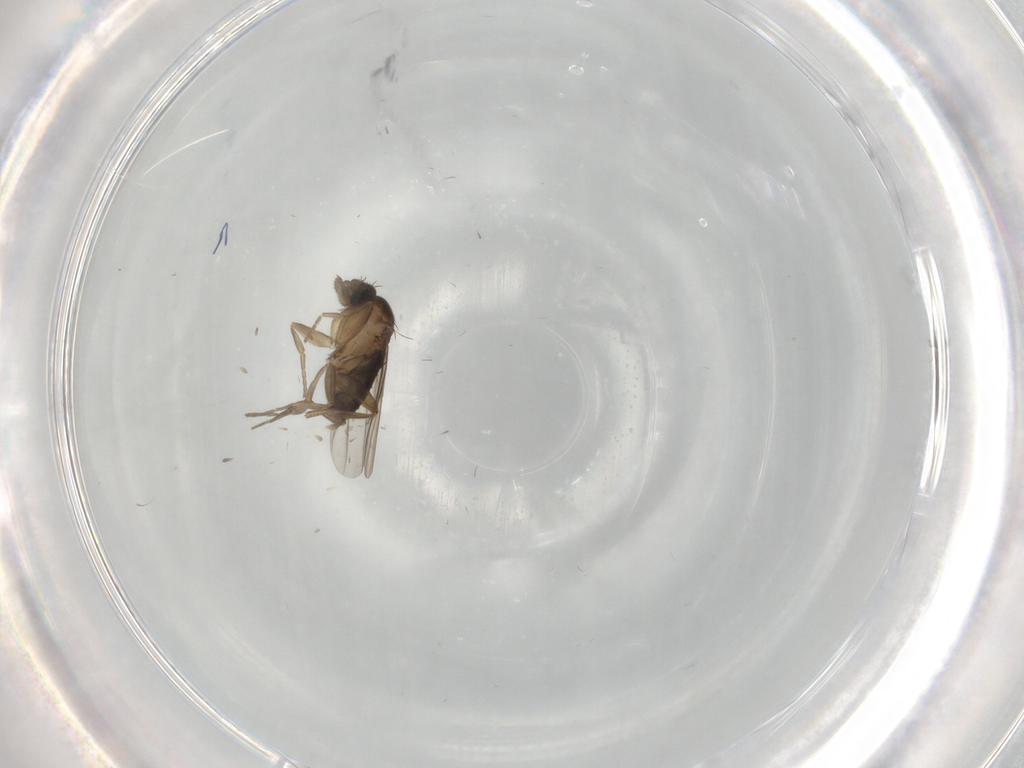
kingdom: Animalia
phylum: Arthropoda
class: Insecta
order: Diptera
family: Phoridae
